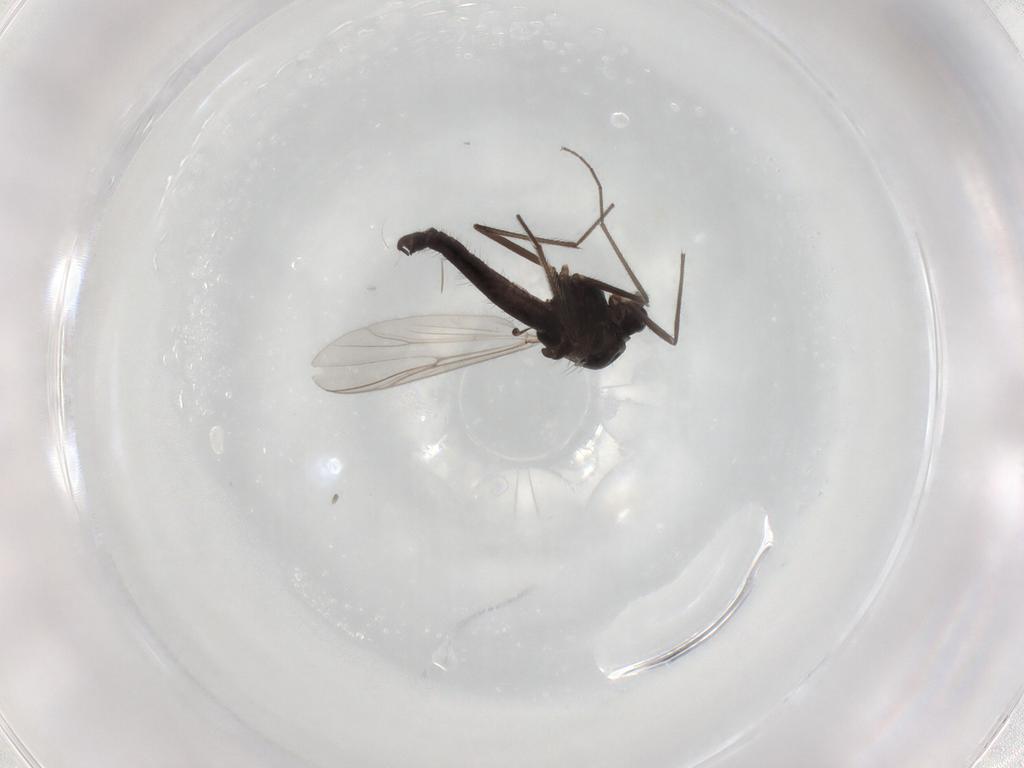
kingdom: Animalia
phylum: Arthropoda
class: Insecta
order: Diptera
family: Chironomidae
